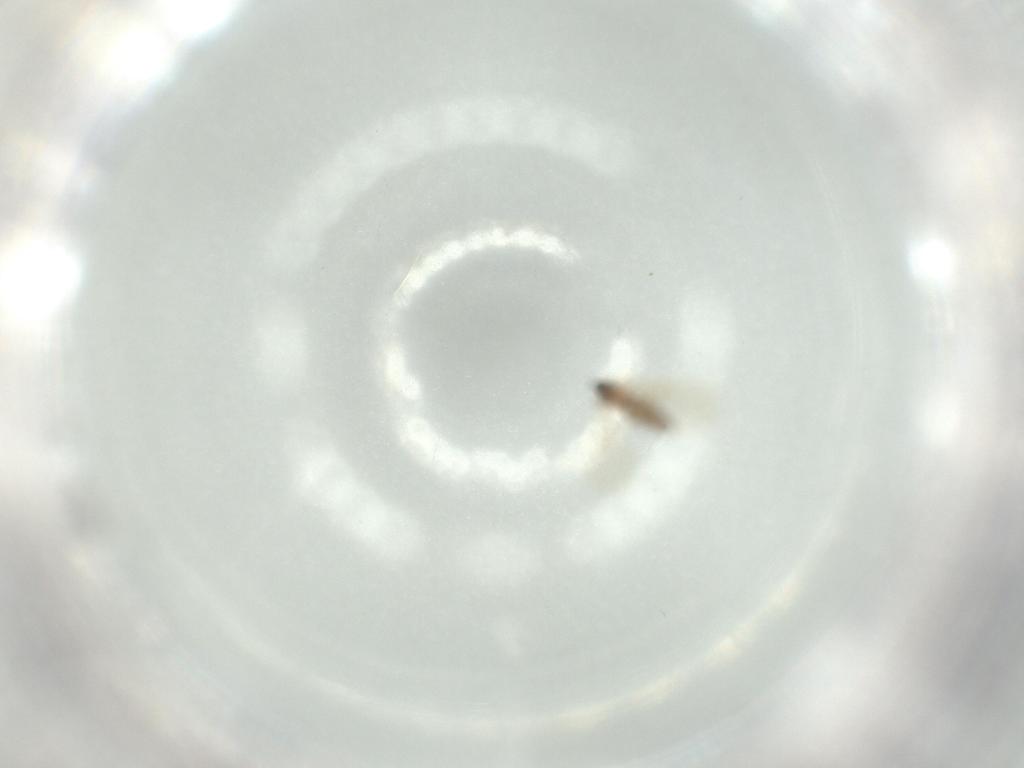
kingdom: Animalia
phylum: Arthropoda
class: Insecta
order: Diptera
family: Cecidomyiidae
